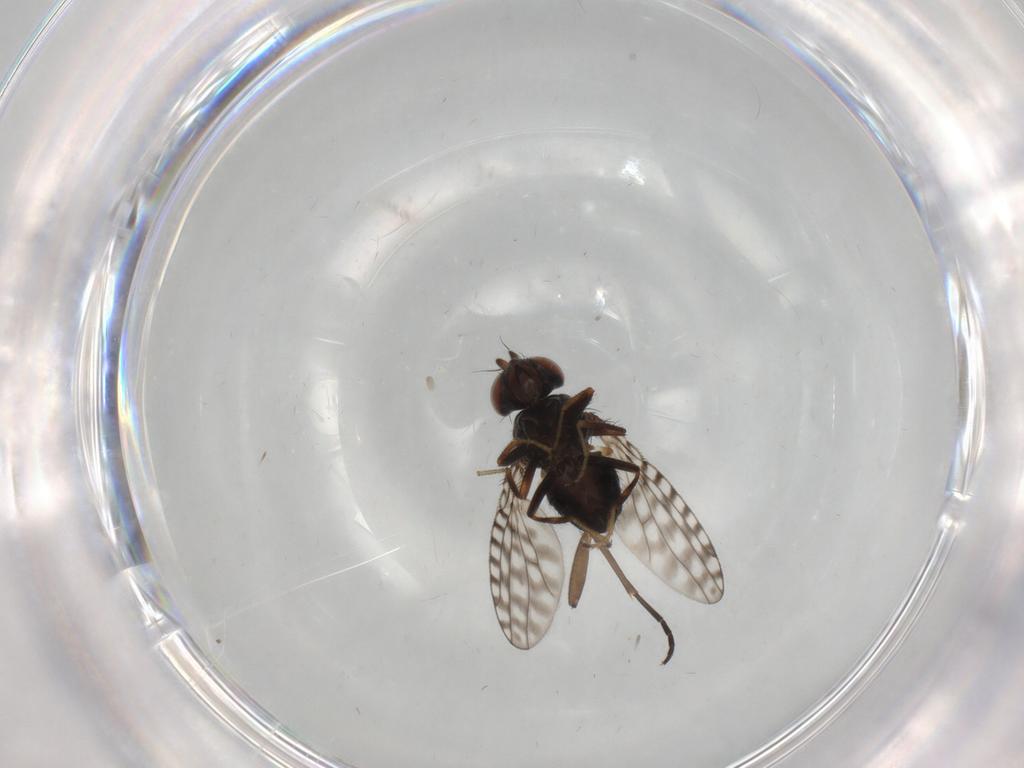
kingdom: Animalia
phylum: Arthropoda
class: Insecta
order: Diptera
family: Ephydridae
